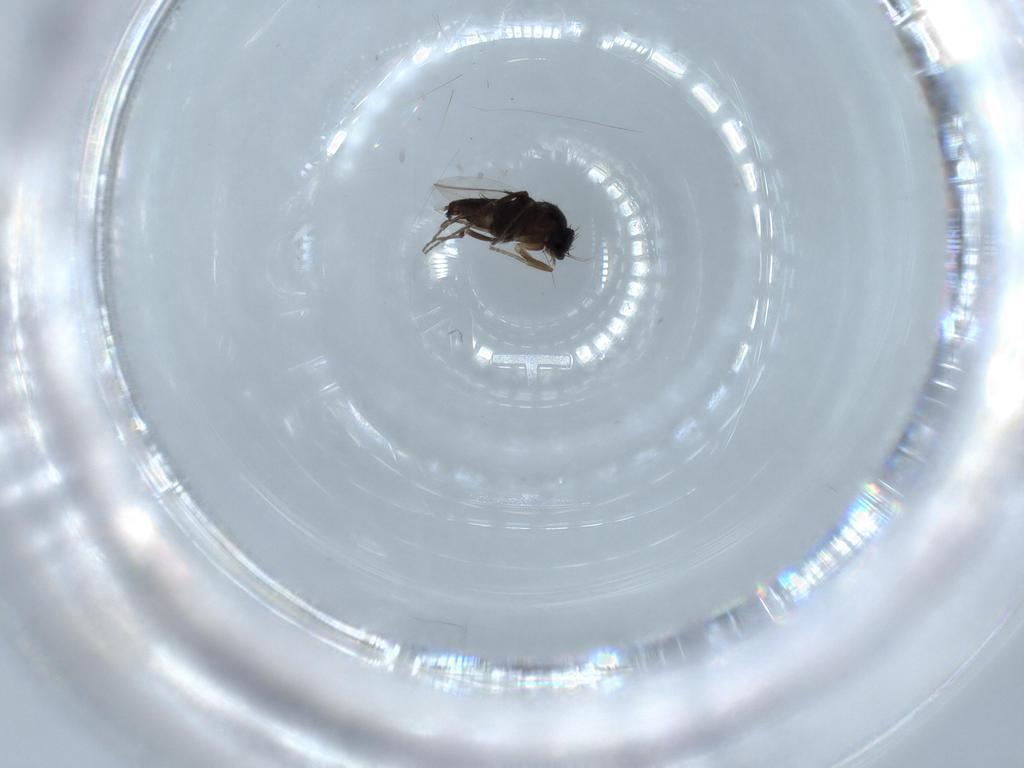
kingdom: Animalia
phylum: Arthropoda
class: Insecta
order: Diptera
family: Phoridae
